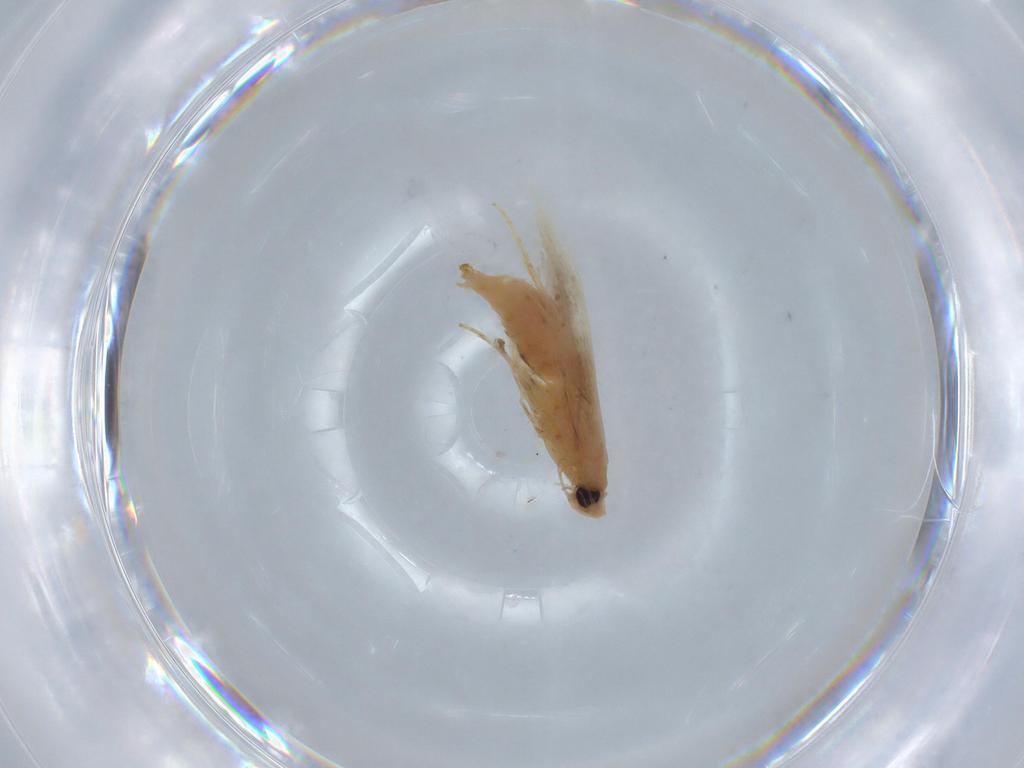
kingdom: Animalia
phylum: Arthropoda
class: Insecta
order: Lepidoptera
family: Tischeriidae
